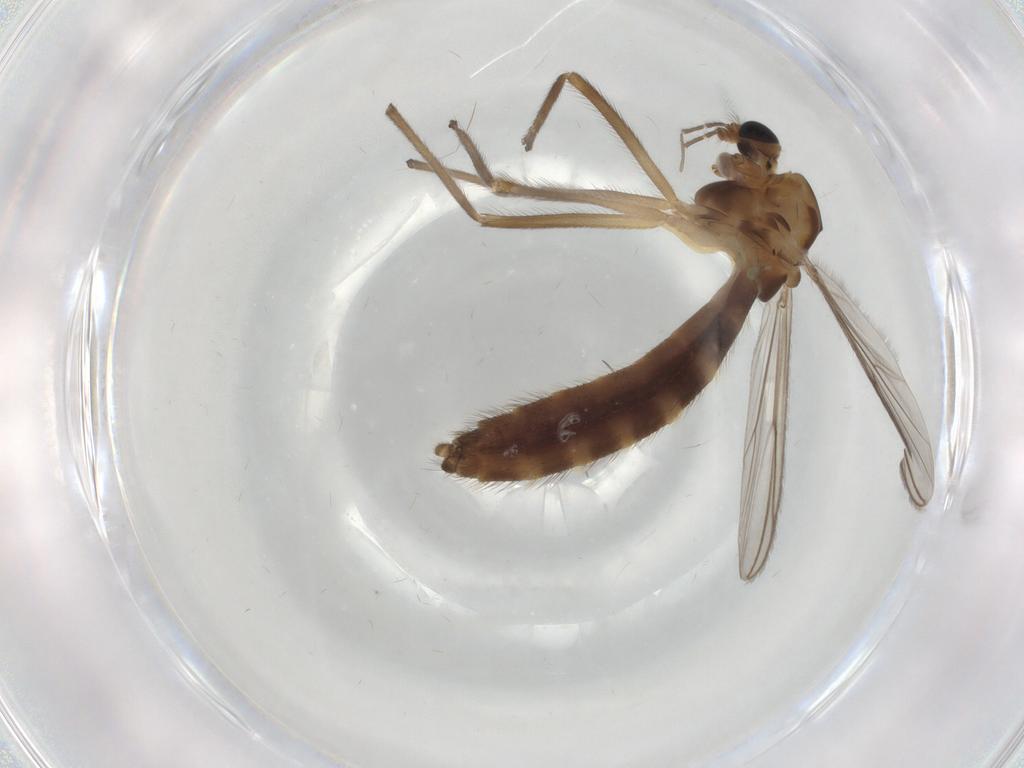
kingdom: Animalia
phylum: Arthropoda
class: Insecta
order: Diptera
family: Chironomidae
